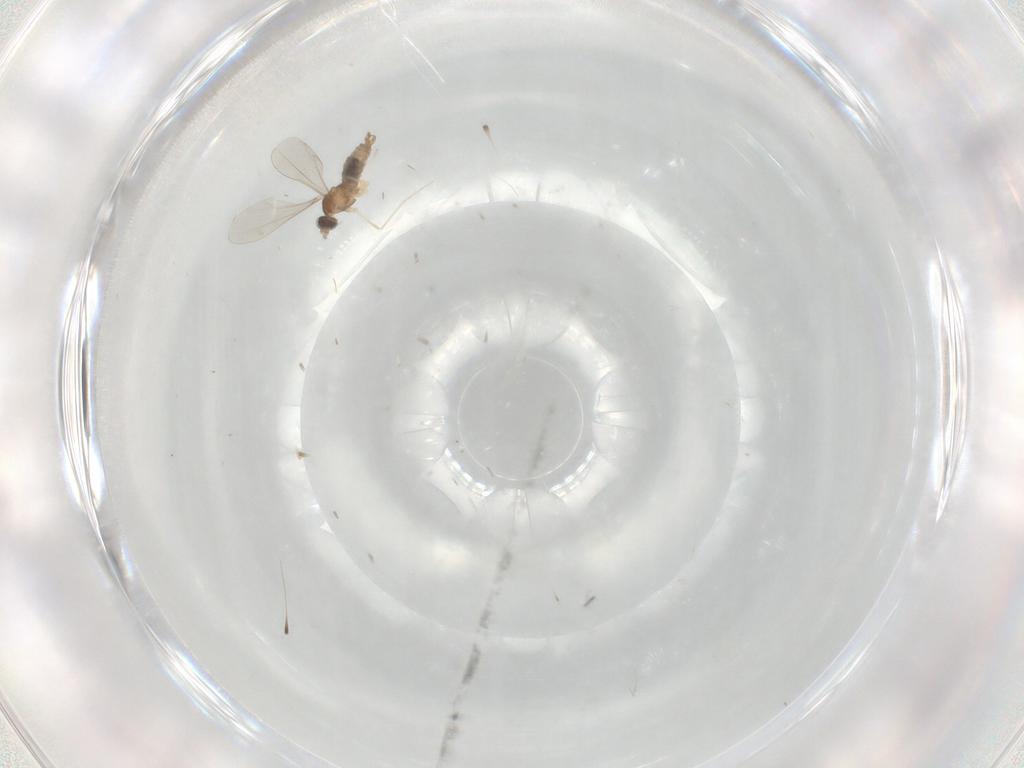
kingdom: Animalia
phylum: Arthropoda
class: Insecta
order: Diptera
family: Cecidomyiidae
